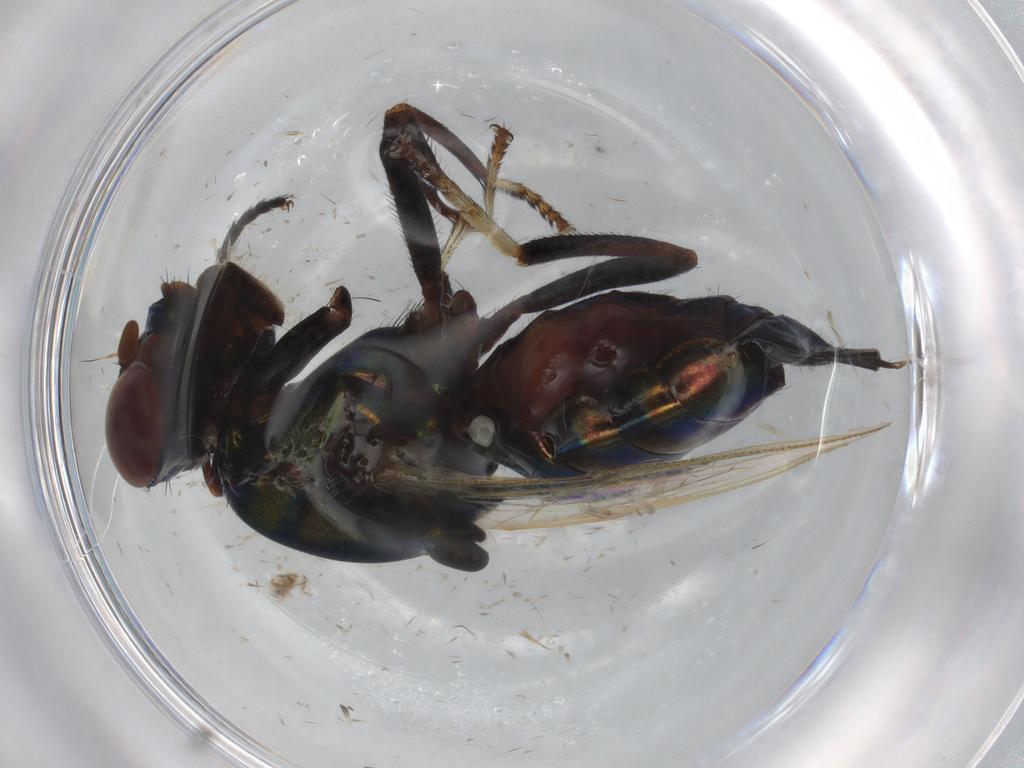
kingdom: Animalia
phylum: Arthropoda
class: Insecta
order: Diptera
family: Ulidiidae
